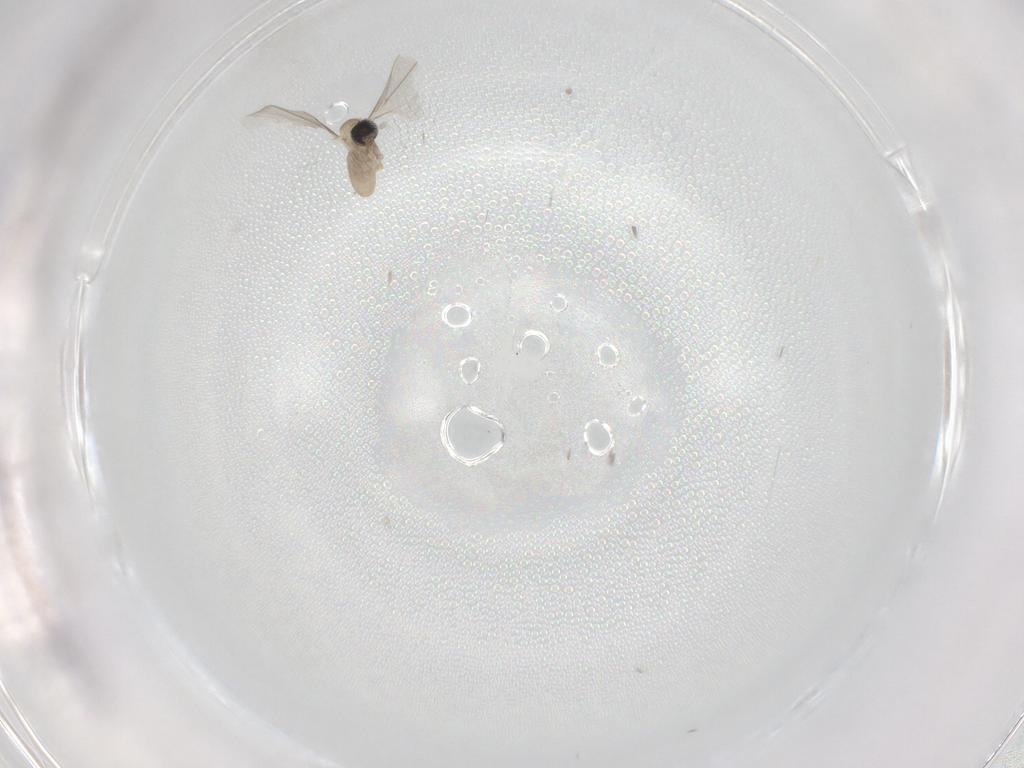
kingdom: Animalia
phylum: Arthropoda
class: Insecta
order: Diptera
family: Cecidomyiidae
